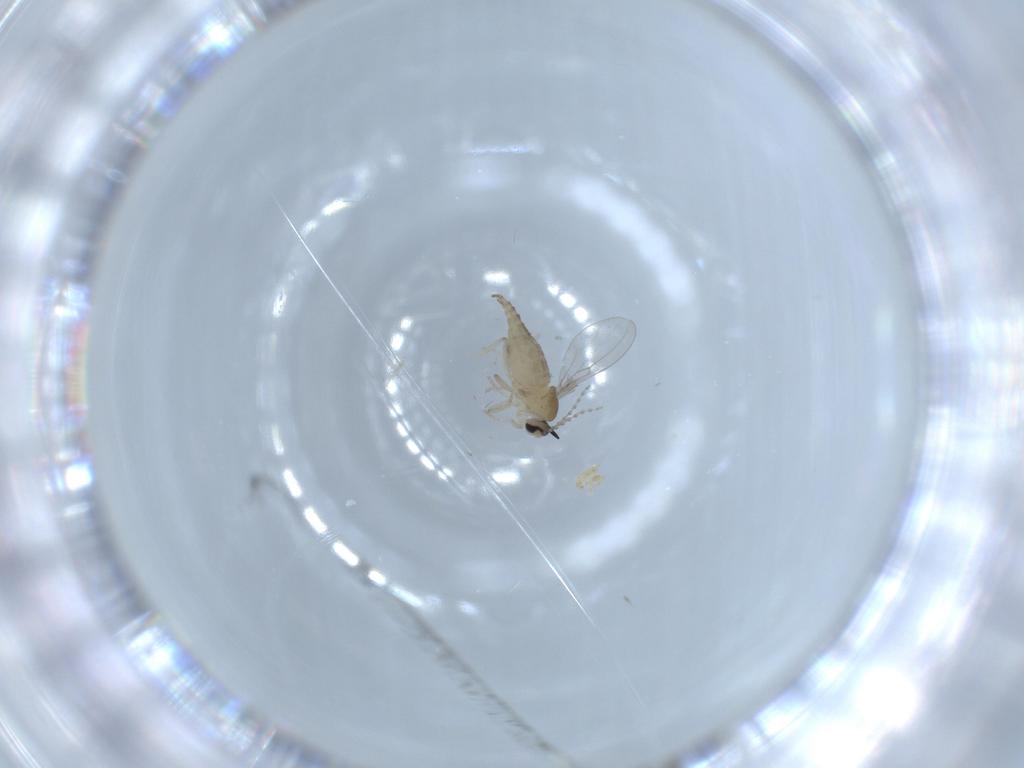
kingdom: Animalia
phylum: Arthropoda
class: Insecta
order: Diptera
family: Cecidomyiidae
